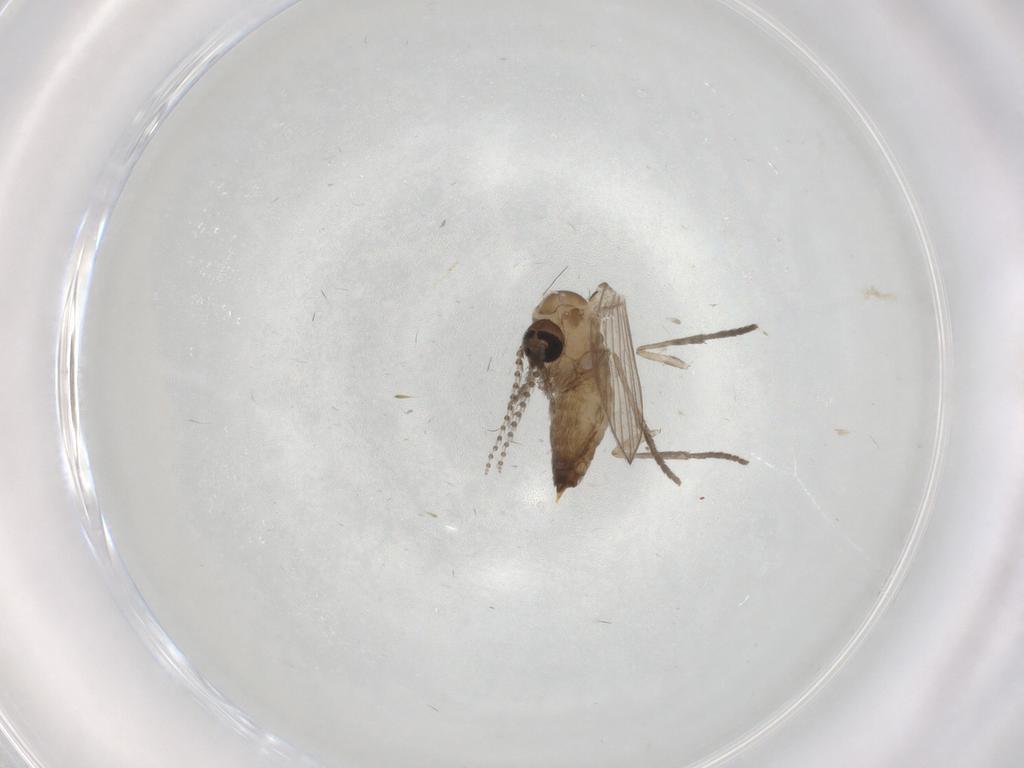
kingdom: Animalia
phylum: Arthropoda
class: Insecta
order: Diptera
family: Psychodidae
